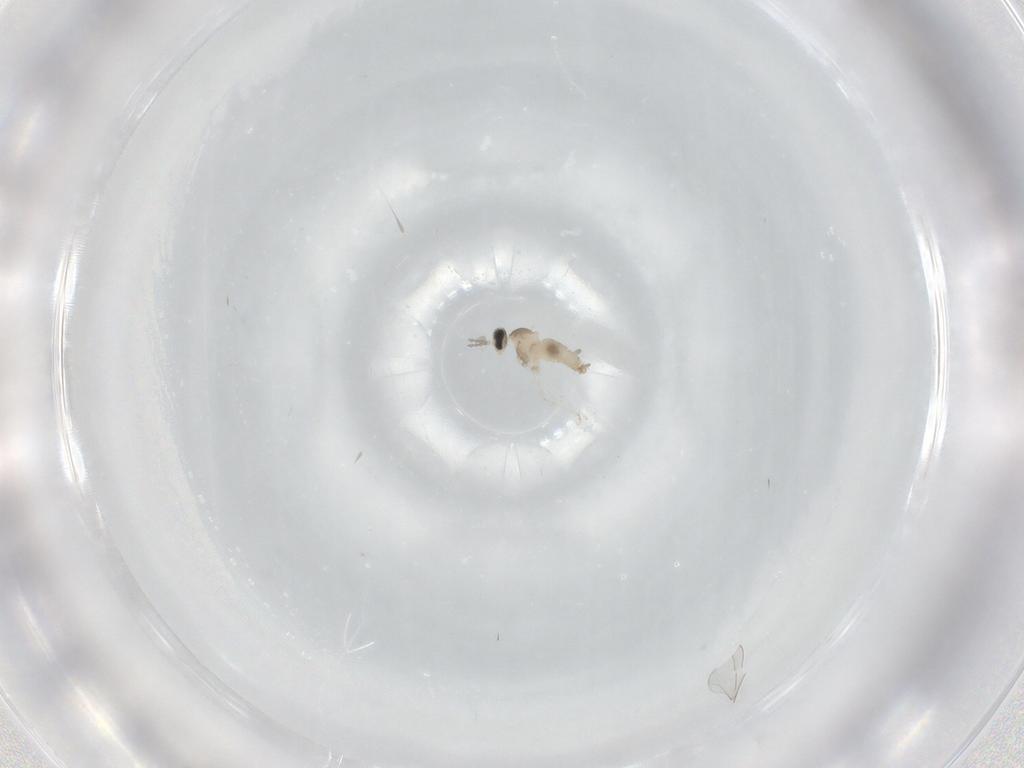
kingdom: Animalia
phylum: Arthropoda
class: Insecta
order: Diptera
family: Cecidomyiidae
